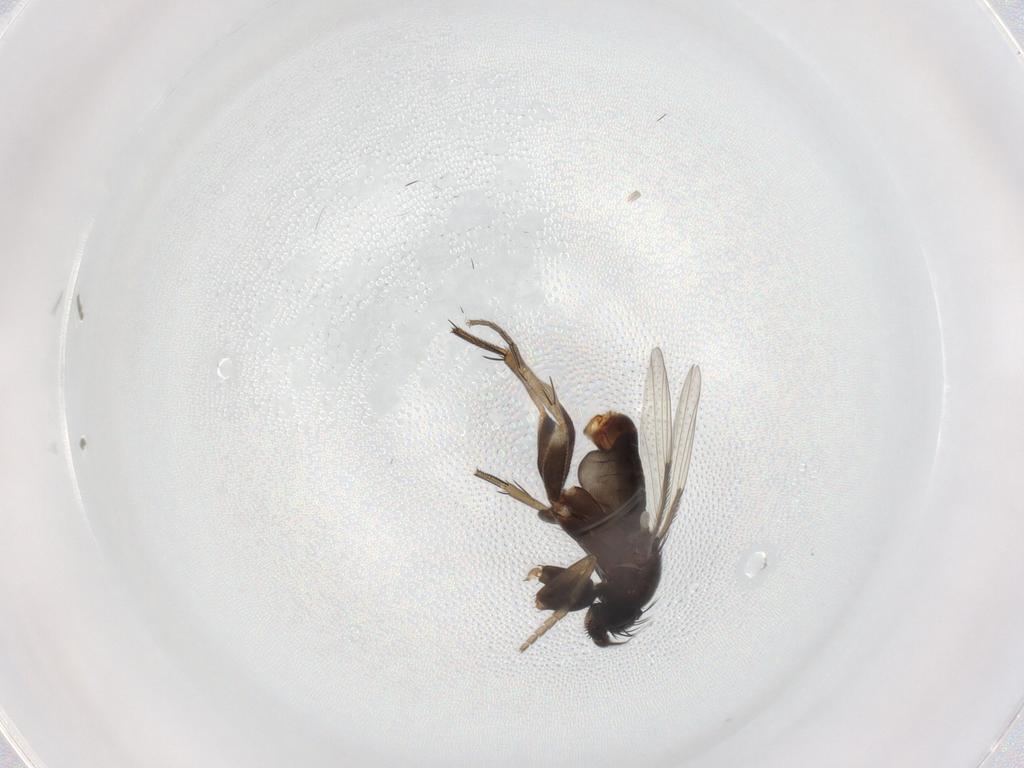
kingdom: Animalia
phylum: Arthropoda
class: Insecta
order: Diptera
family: Phoridae
